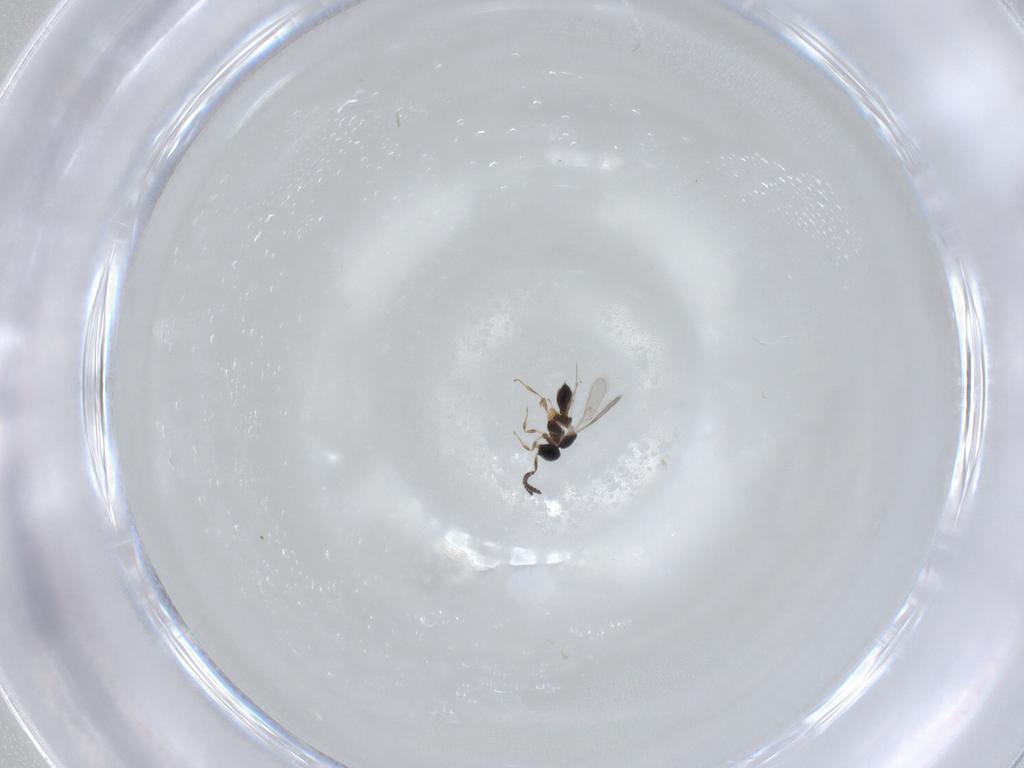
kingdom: Animalia
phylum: Arthropoda
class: Insecta
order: Hymenoptera
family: Scelionidae
